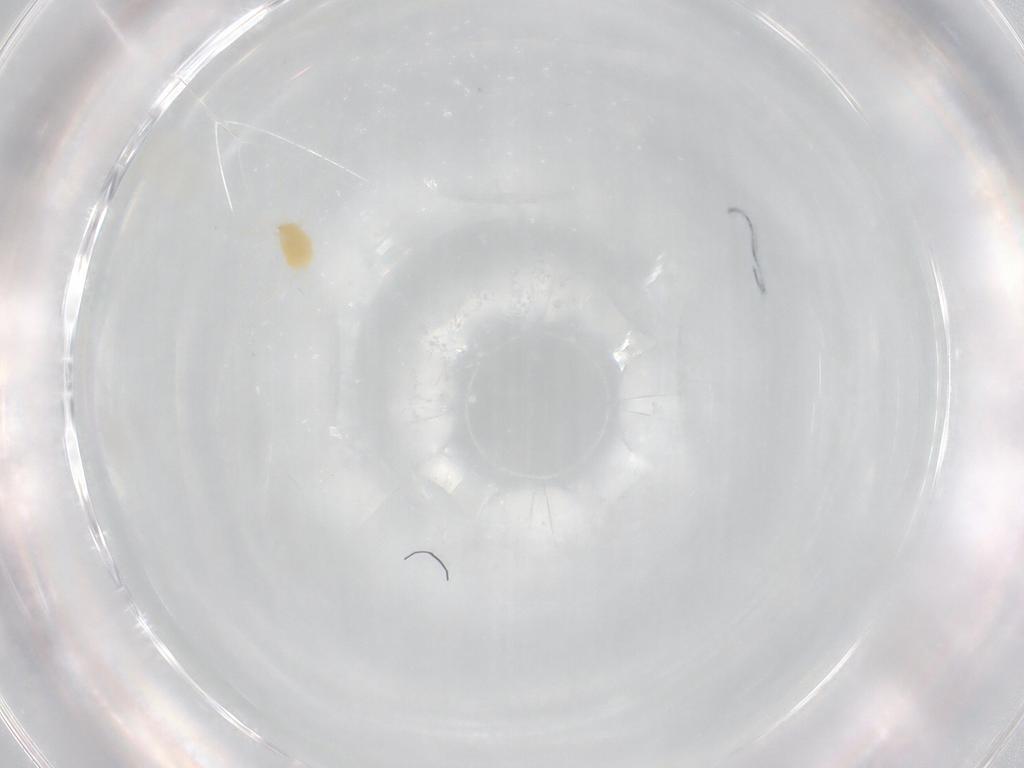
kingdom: Animalia
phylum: Arthropoda
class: Arachnida
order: Trombidiformes
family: Tetranychidae
